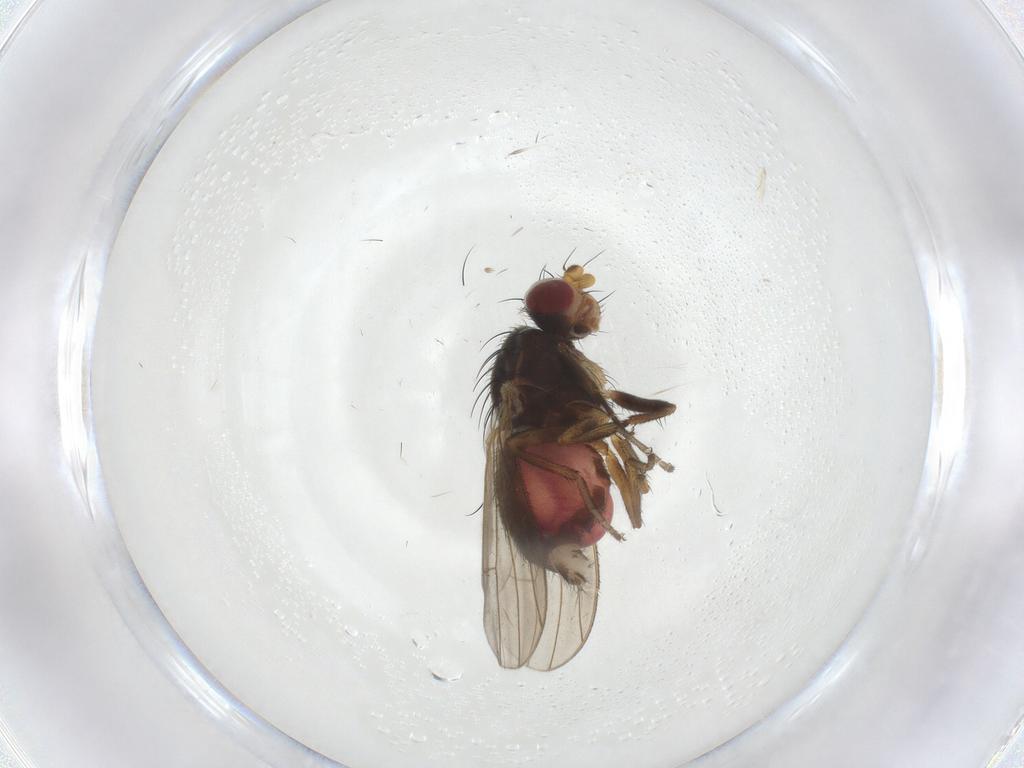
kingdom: Animalia
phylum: Arthropoda
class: Insecta
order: Diptera
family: Heleomyzidae
